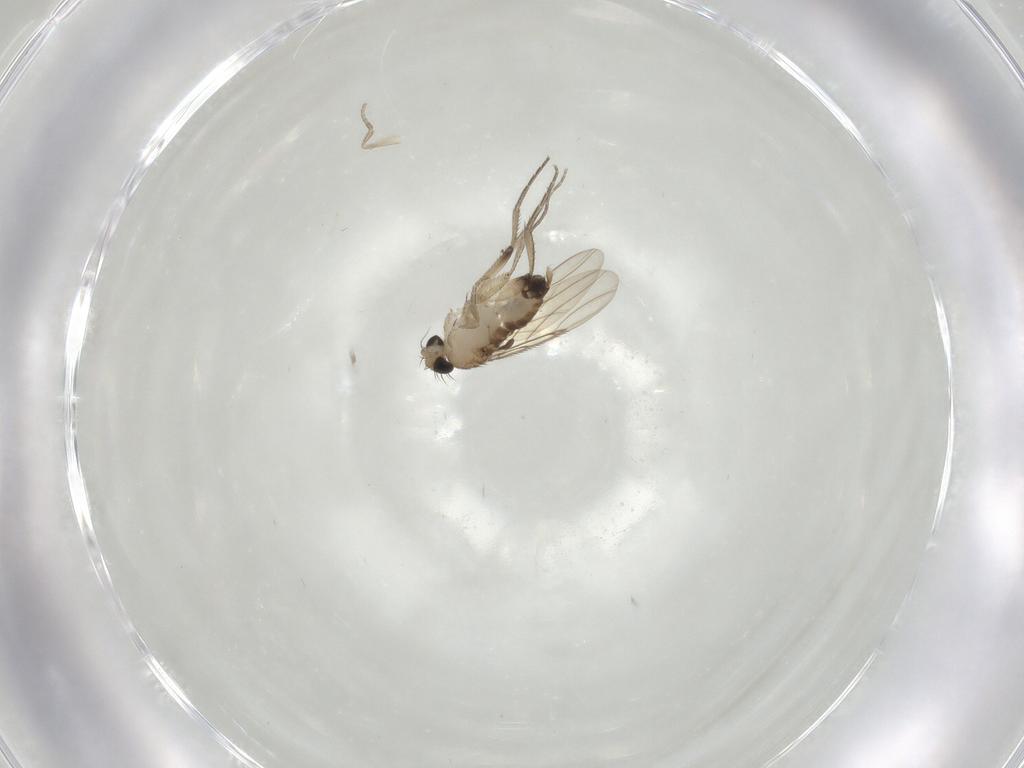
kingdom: Animalia
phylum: Arthropoda
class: Insecta
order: Diptera
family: Phoridae
